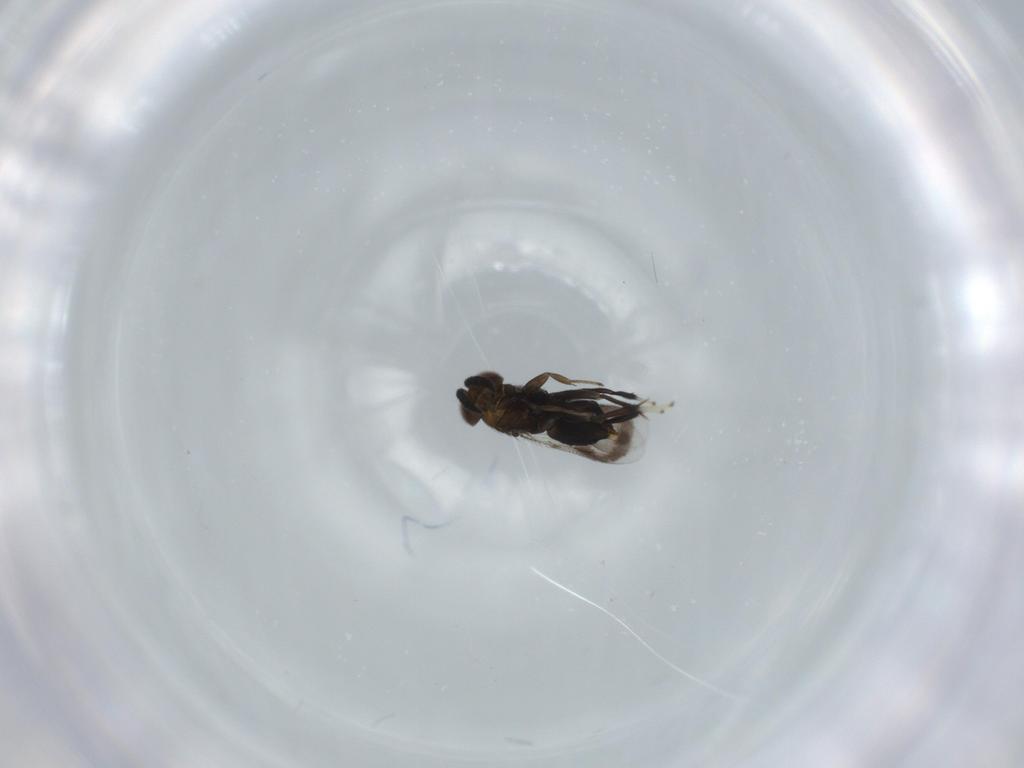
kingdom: Animalia
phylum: Arthropoda
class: Insecta
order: Hymenoptera
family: Aphelinidae
